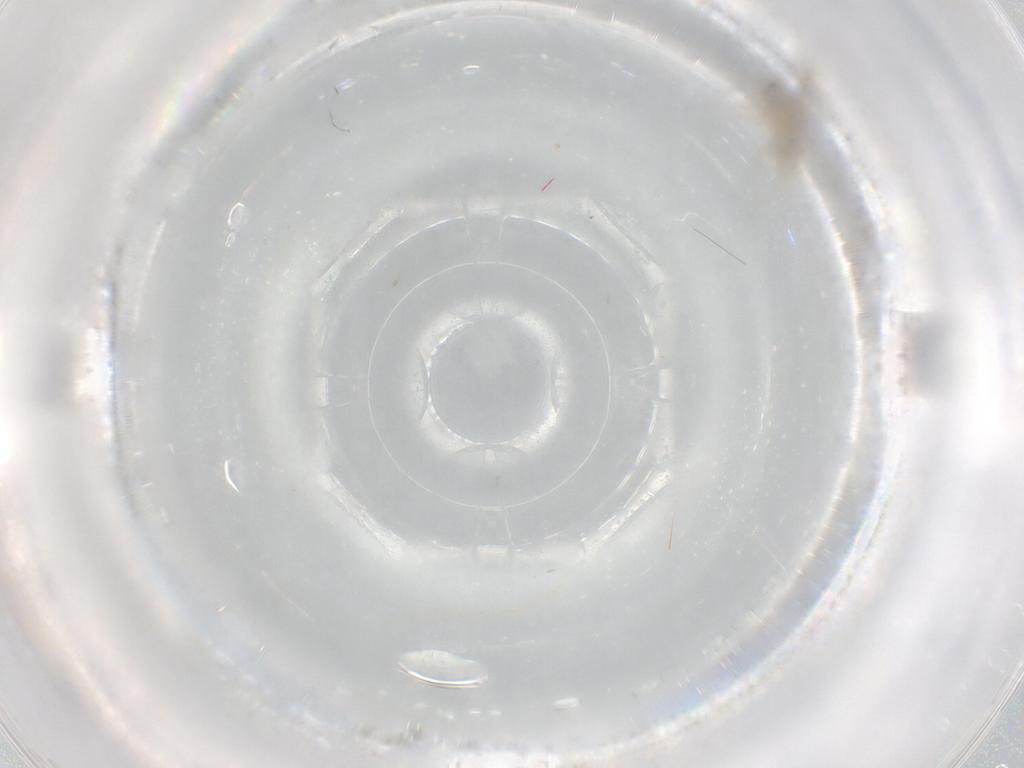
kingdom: Animalia
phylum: Arthropoda
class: Insecta
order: Diptera
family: Cecidomyiidae
